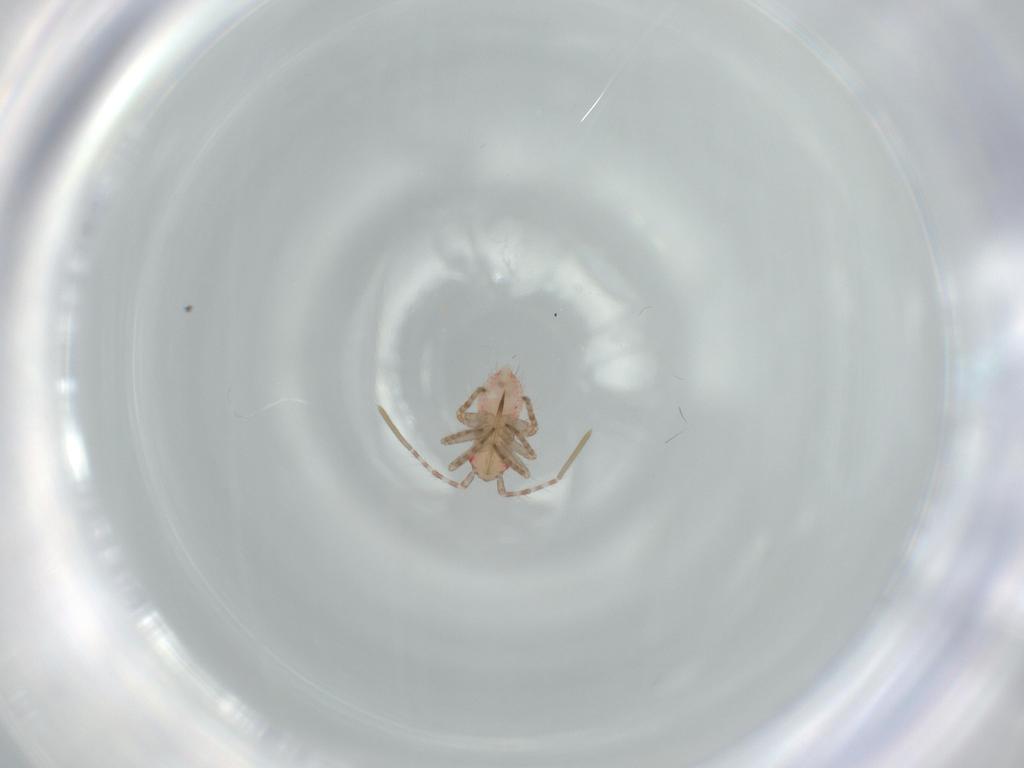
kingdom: Animalia
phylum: Arthropoda
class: Insecta
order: Hemiptera
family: Miridae
